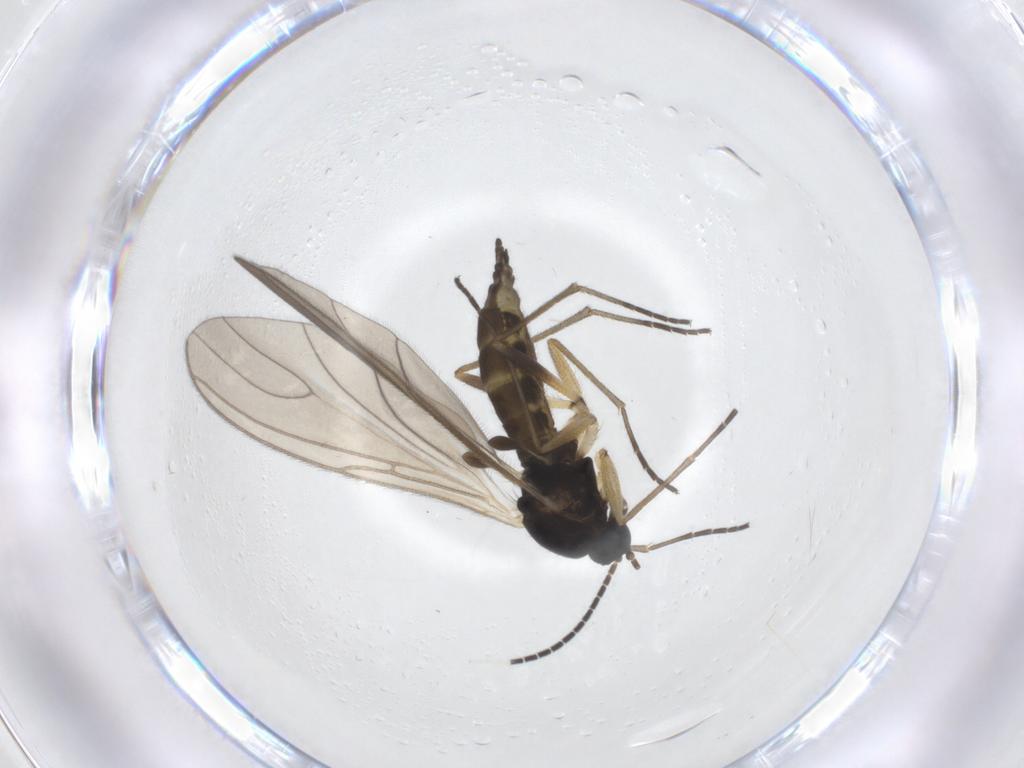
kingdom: Animalia
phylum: Arthropoda
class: Insecta
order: Diptera
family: Sciaridae
